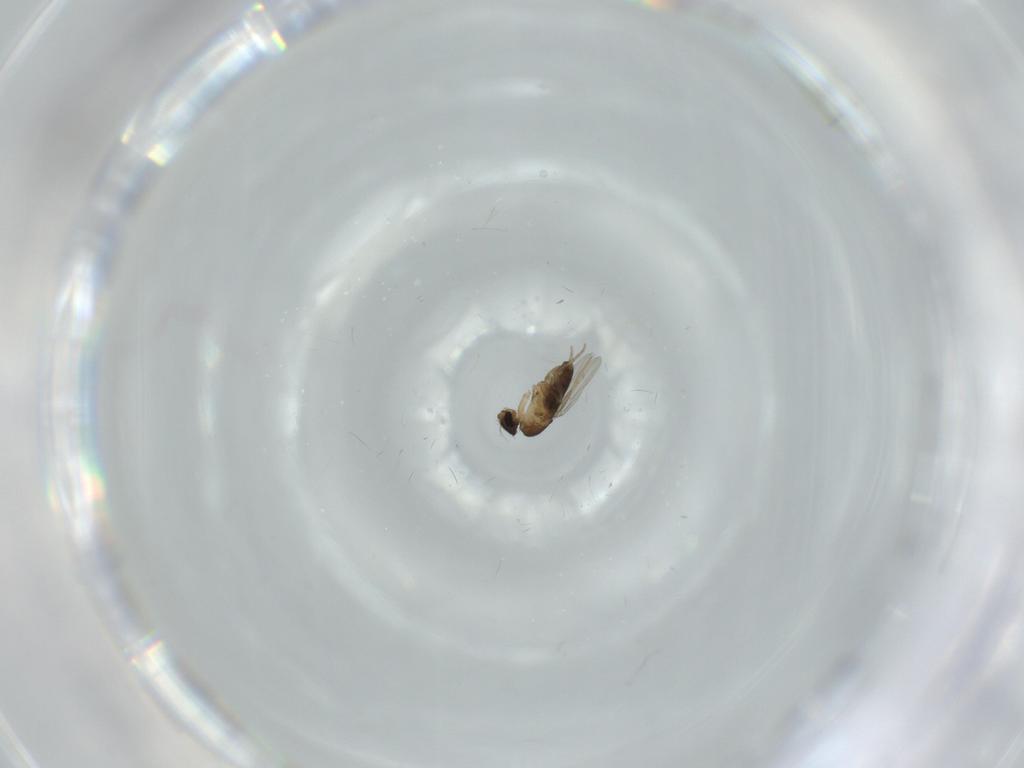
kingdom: Animalia
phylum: Arthropoda
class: Insecta
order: Diptera
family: Phoridae
